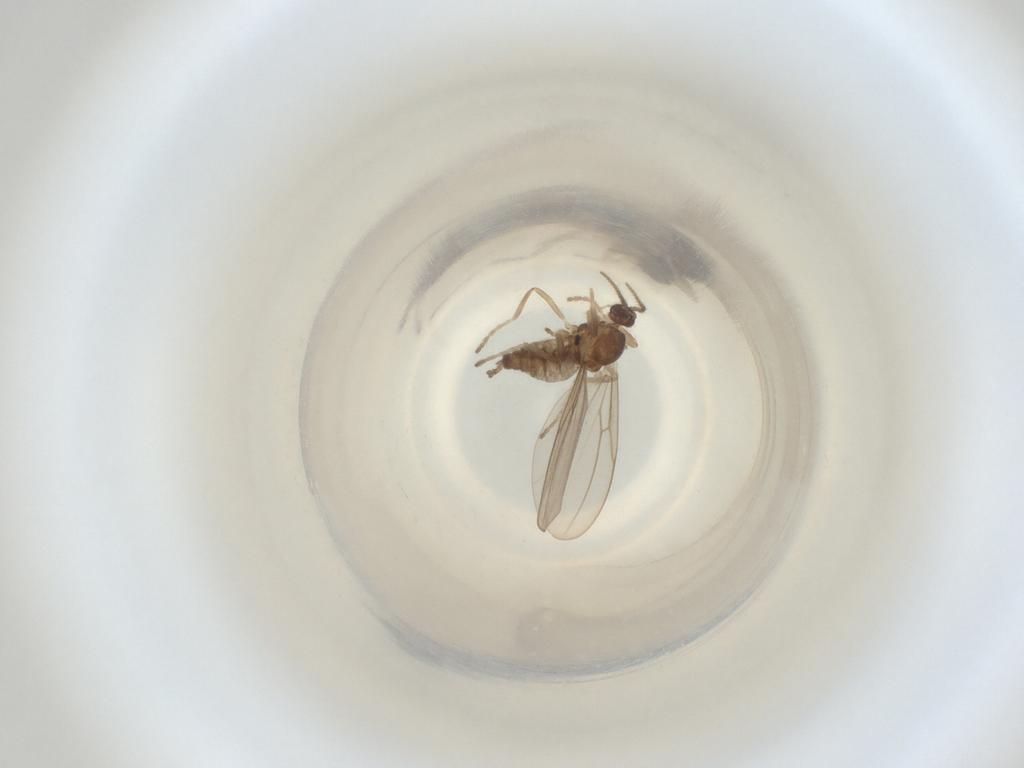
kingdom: Animalia
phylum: Arthropoda
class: Insecta
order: Diptera
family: Cecidomyiidae
